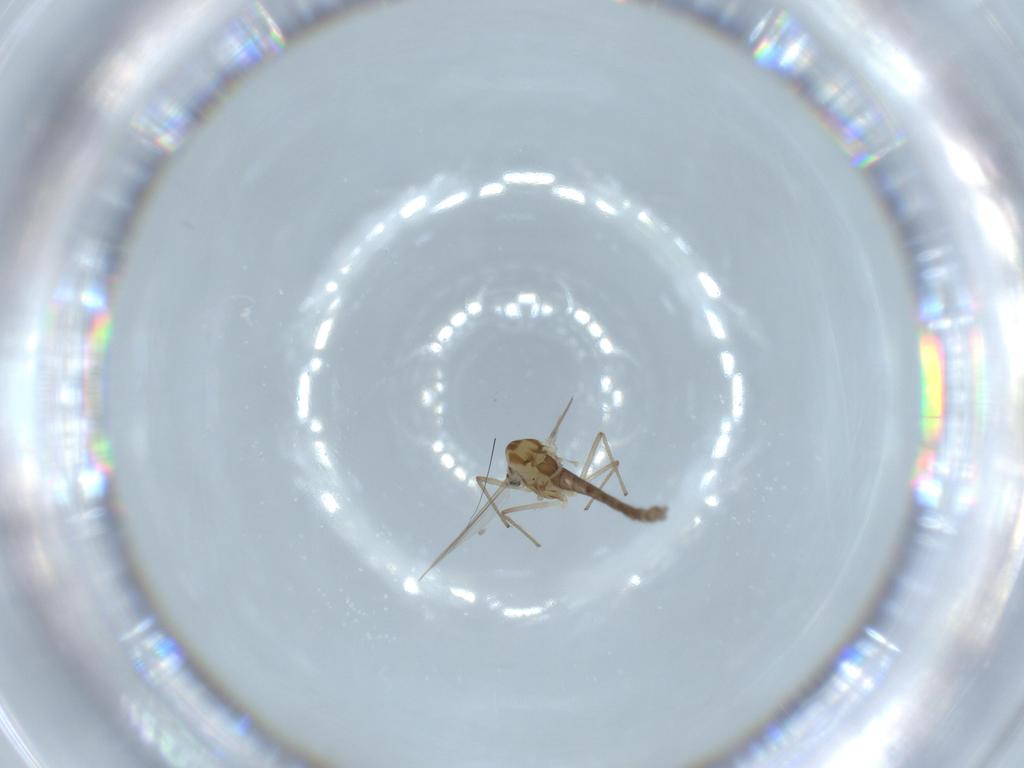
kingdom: Animalia
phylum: Arthropoda
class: Insecta
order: Diptera
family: Chironomidae
